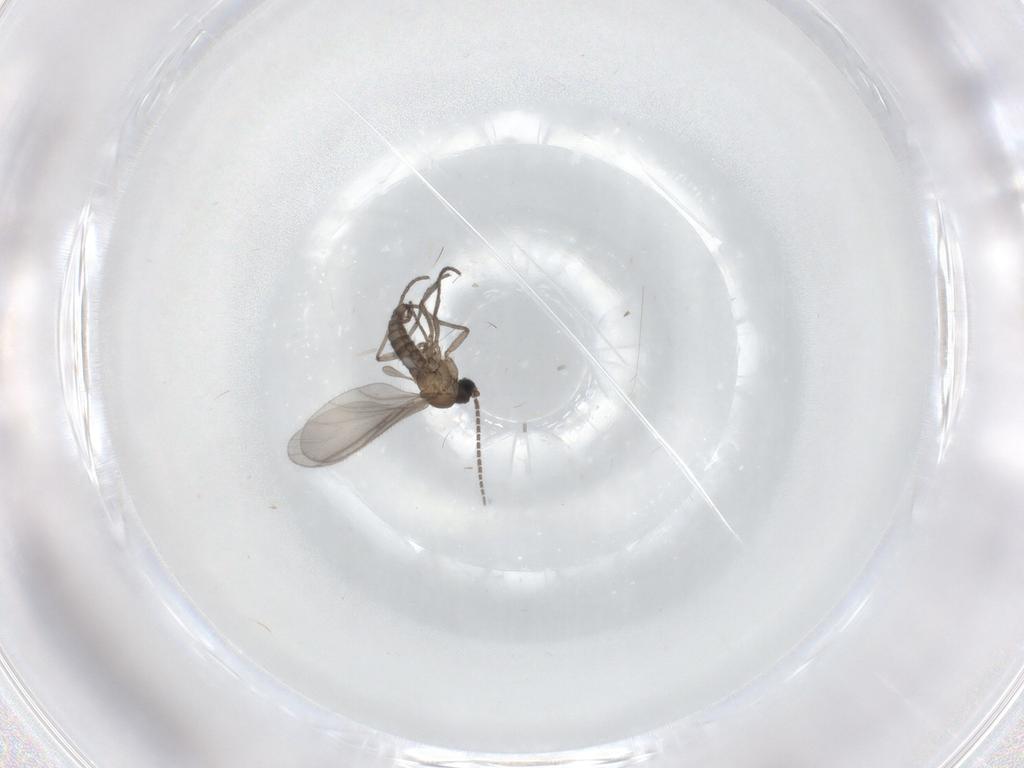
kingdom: Animalia
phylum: Arthropoda
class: Insecta
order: Diptera
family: Sciaridae
